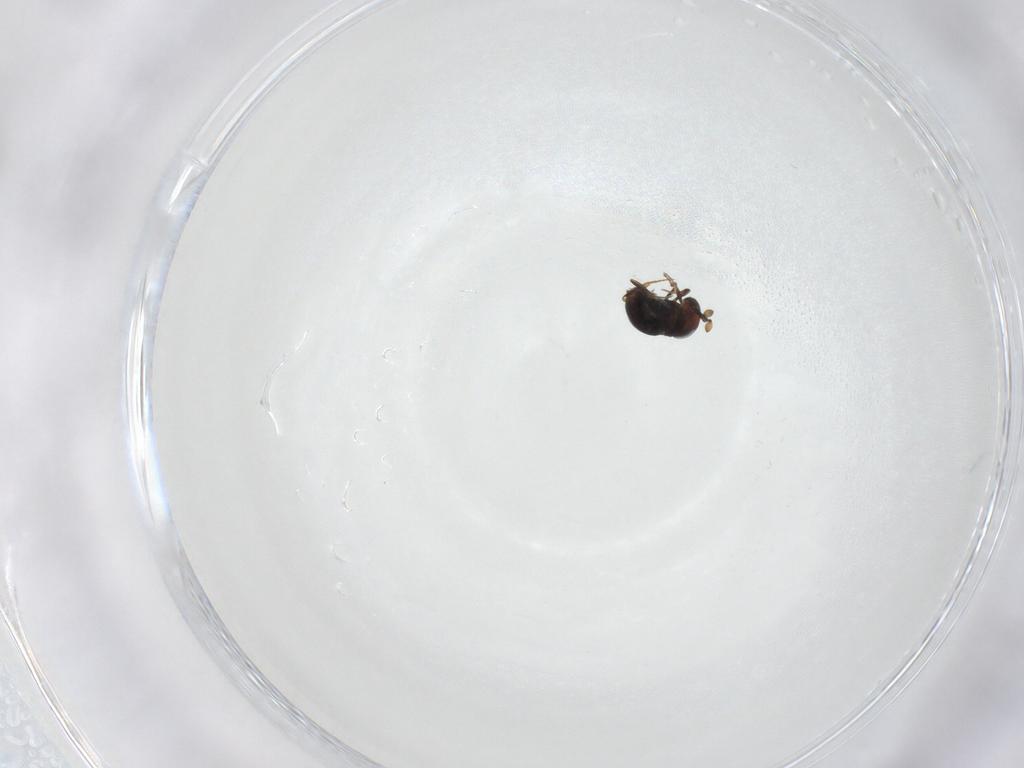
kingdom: Animalia
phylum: Arthropoda
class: Insecta
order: Hymenoptera
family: Scelionidae
